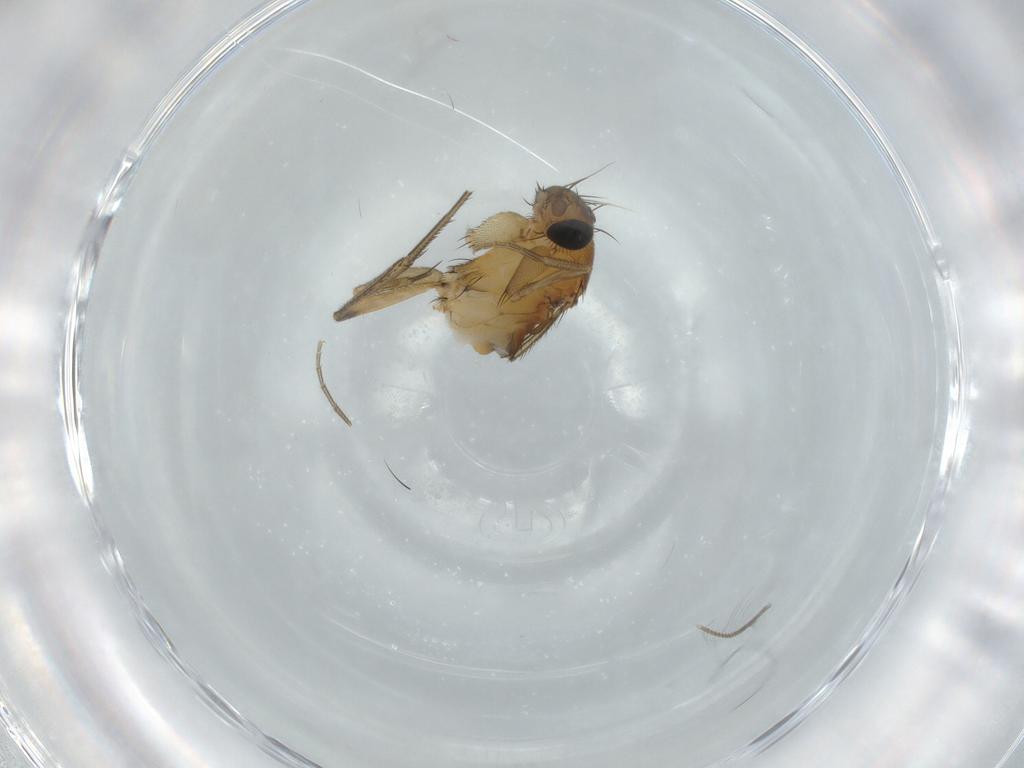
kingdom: Animalia
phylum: Arthropoda
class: Insecta
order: Diptera
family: Phoridae
